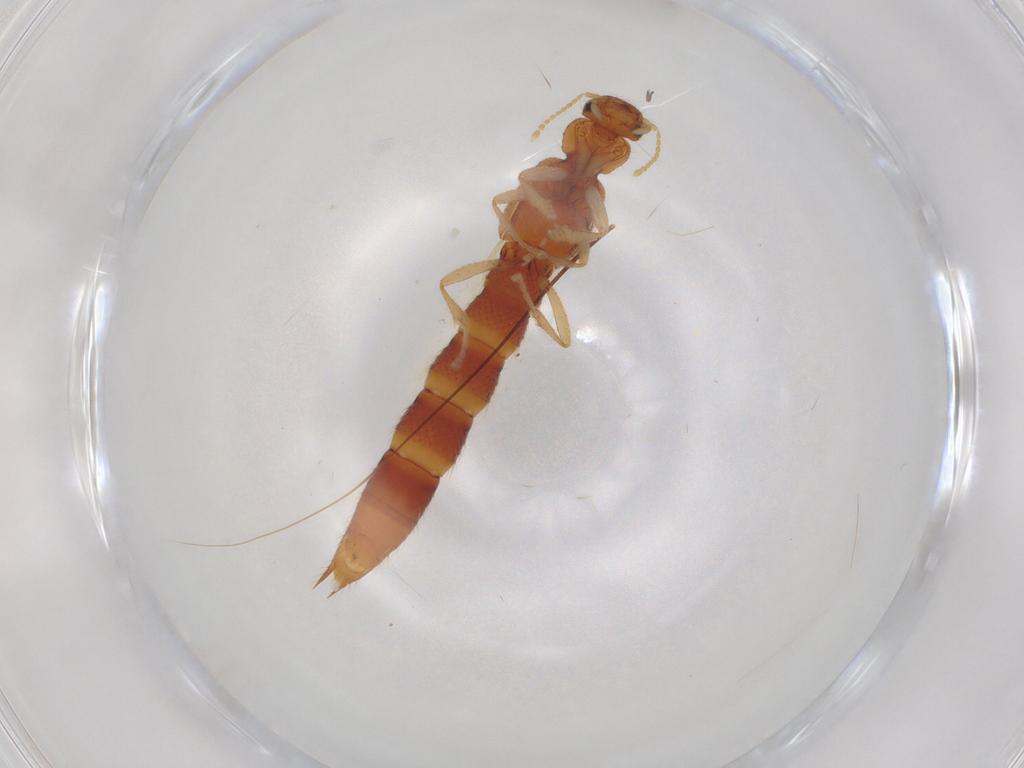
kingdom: Animalia
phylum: Arthropoda
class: Insecta
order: Coleoptera
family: Staphylinidae
